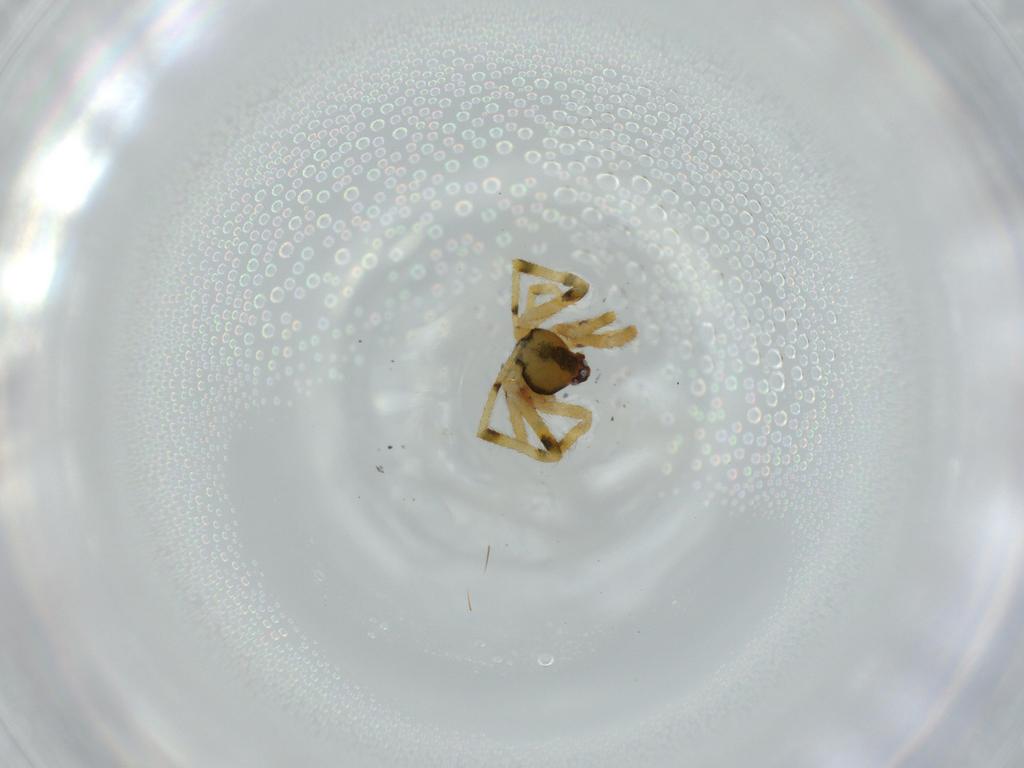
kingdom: Animalia
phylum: Arthropoda
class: Arachnida
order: Araneae
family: Theridiidae
